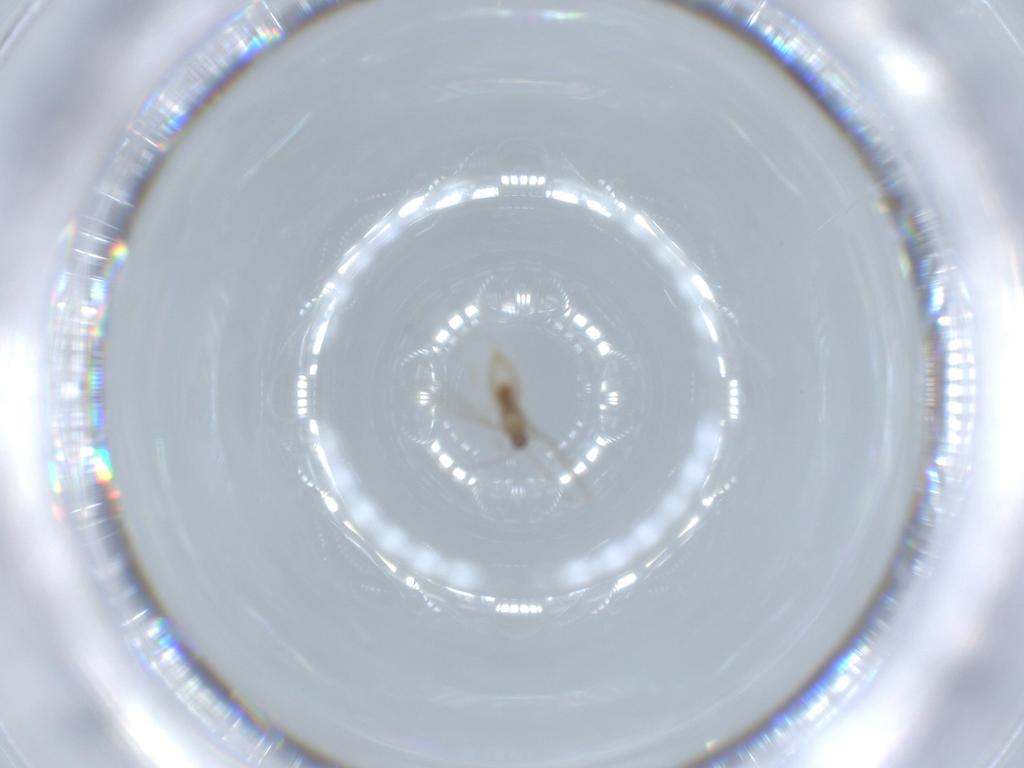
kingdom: Animalia
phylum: Arthropoda
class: Insecta
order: Diptera
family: Cecidomyiidae
